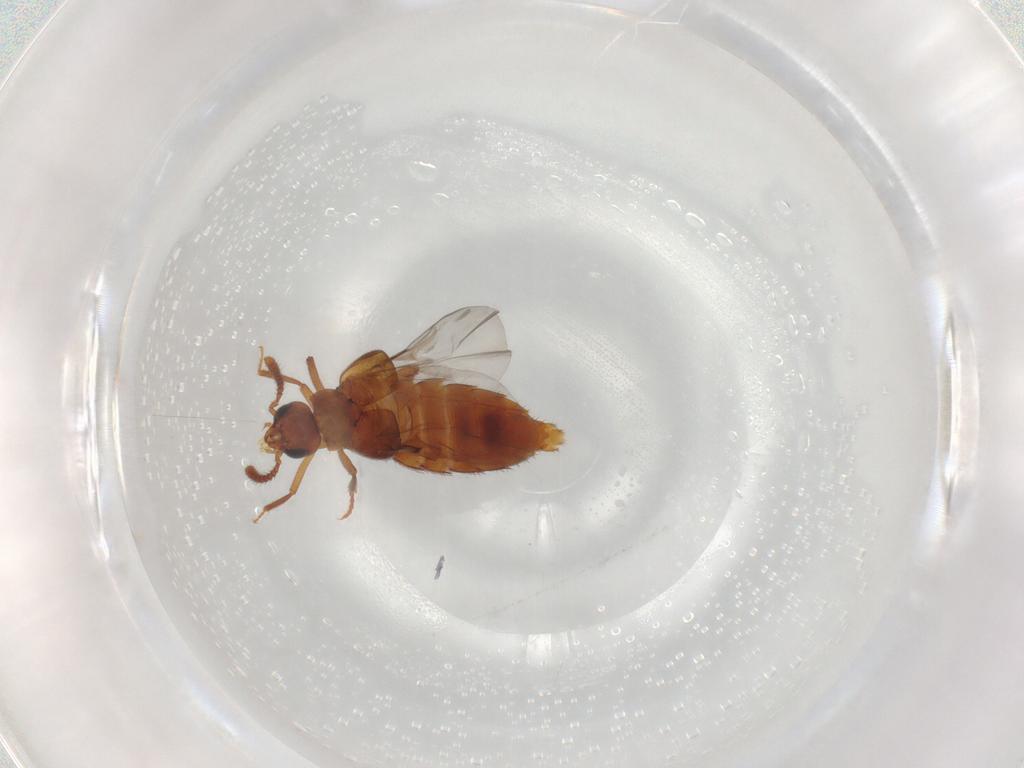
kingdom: Animalia
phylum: Arthropoda
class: Insecta
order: Coleoptera
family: Staphylinidae
